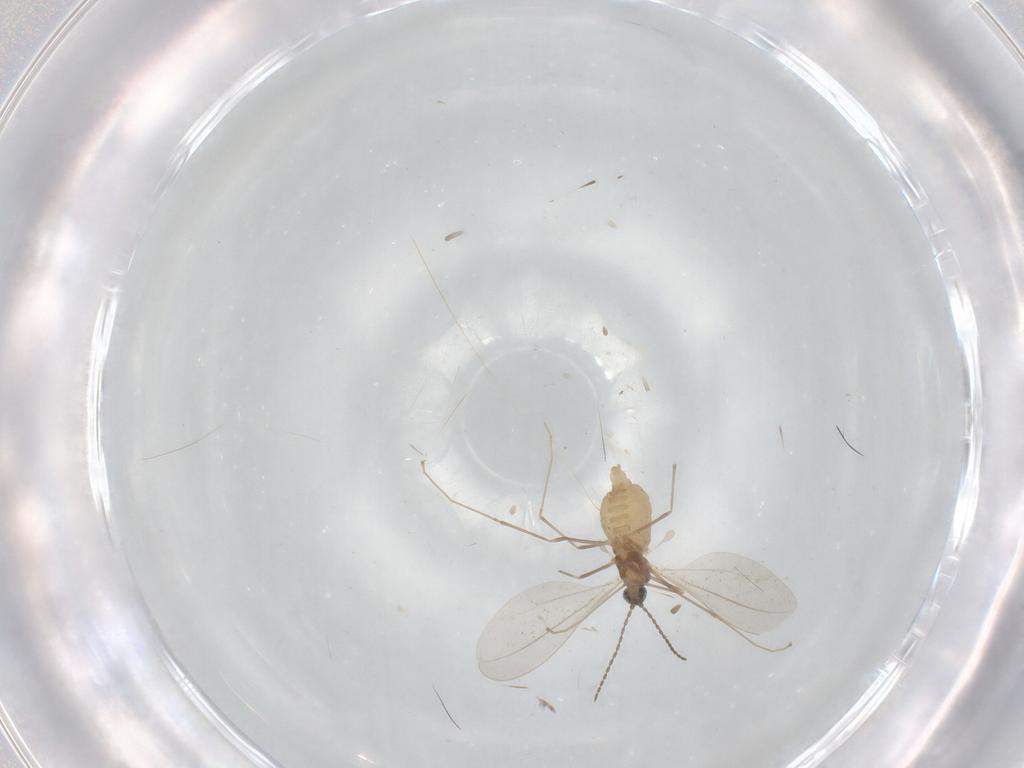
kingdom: Animalia
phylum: Arthropoda
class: Insecta
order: Diptera
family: Cecidomyiidae
